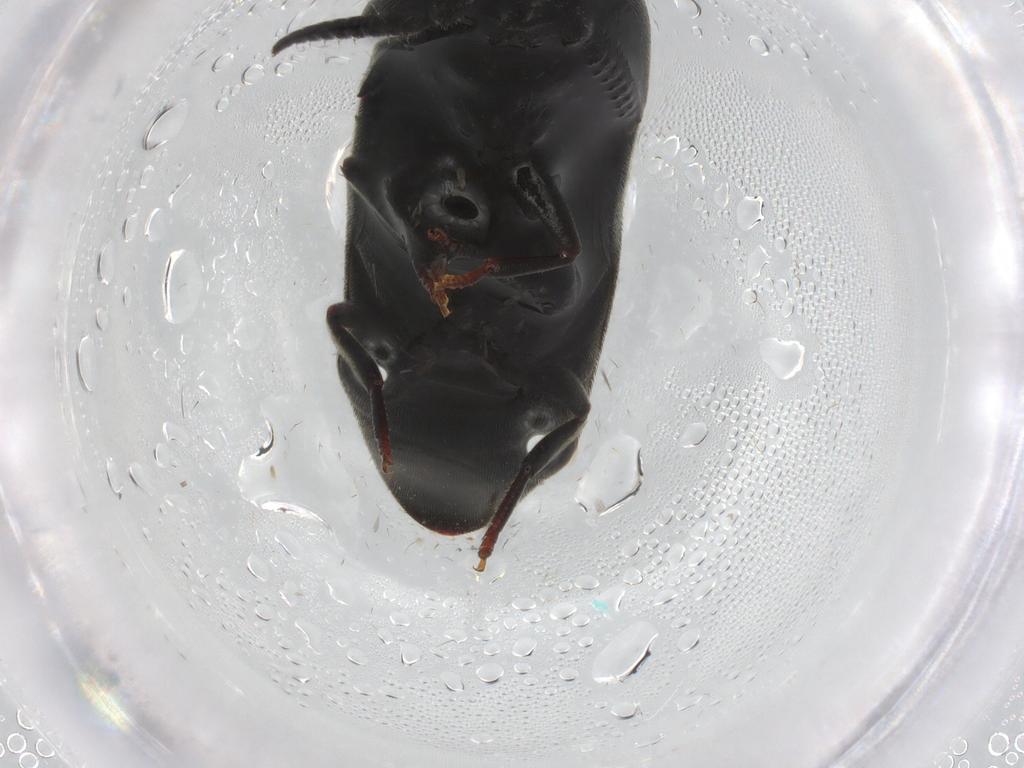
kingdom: Animalia
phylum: Arthropoda
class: Insecta
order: Coleoptera
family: Eucnemidae
